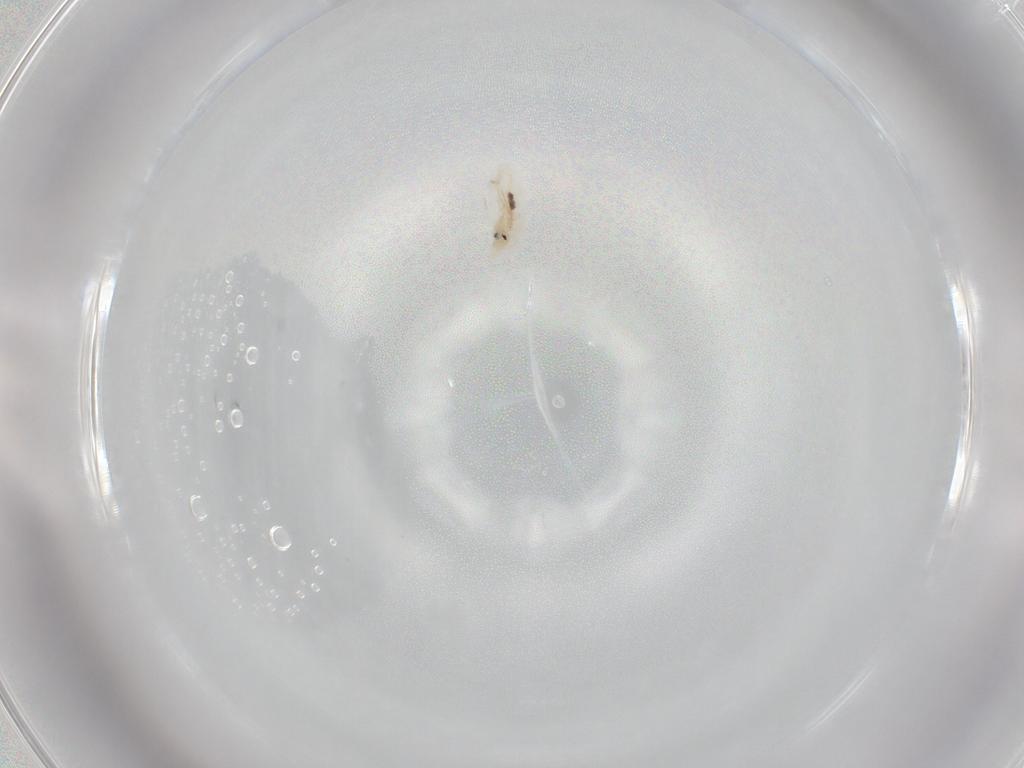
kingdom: Animalia
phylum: Arthropoda
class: Collembola
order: Entomobryomorpha
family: Entomobryidae
